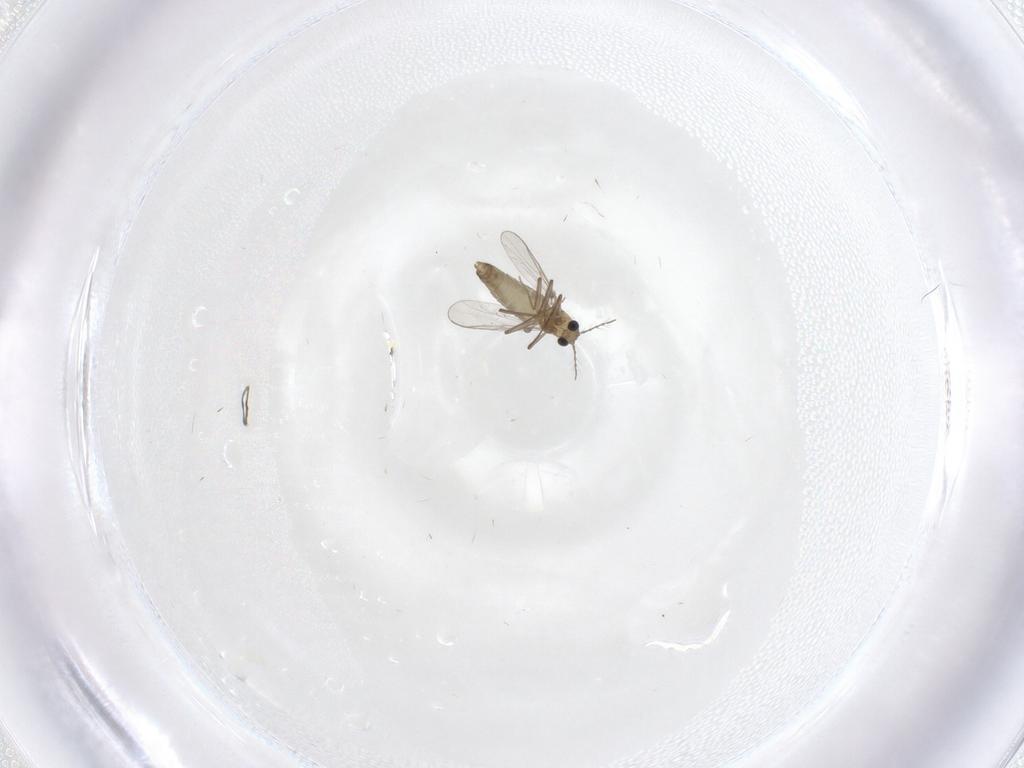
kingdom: Animalia
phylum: Arthropoda
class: Insecta
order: Diptera
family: Chironomidae
